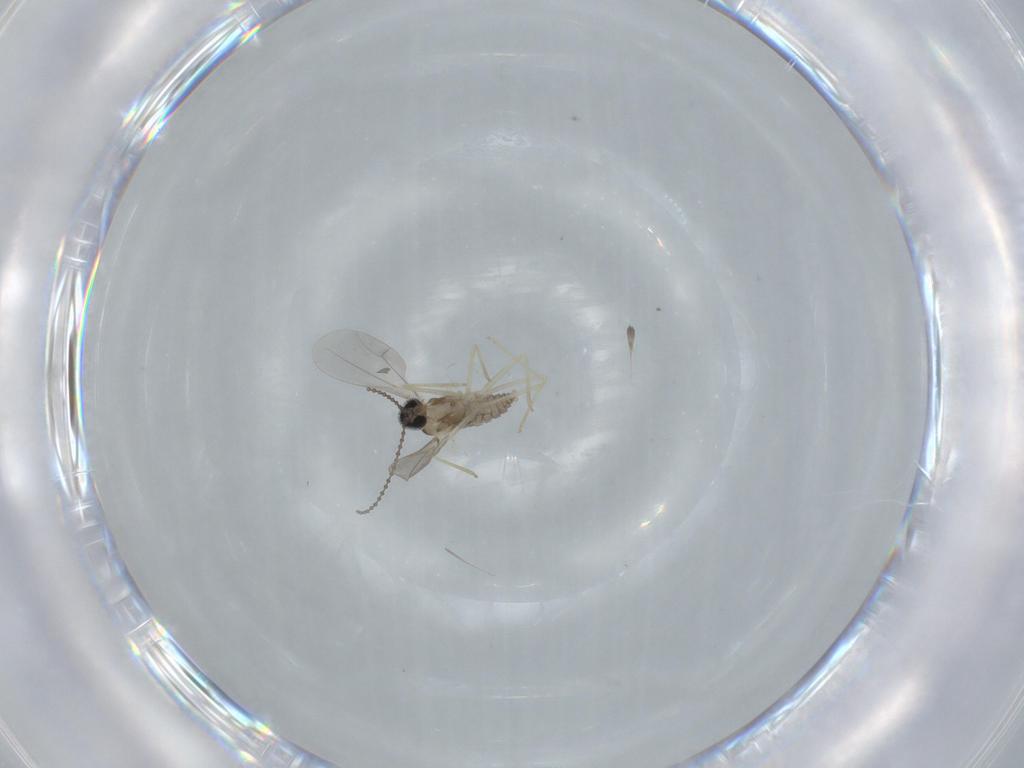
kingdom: Animalia
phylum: Arthropoda
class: Insecta
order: Diptera
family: Cecidomyiidae
